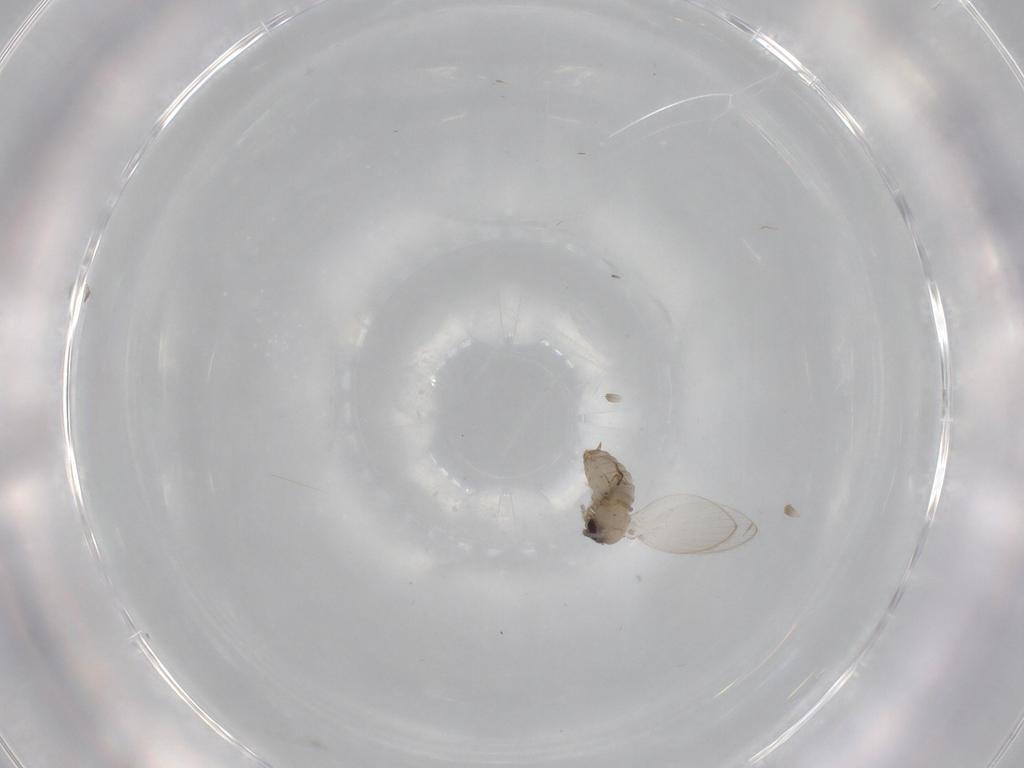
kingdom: Animalia
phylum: Arthropoda
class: Insecta
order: Diptera
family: Psychodidae
